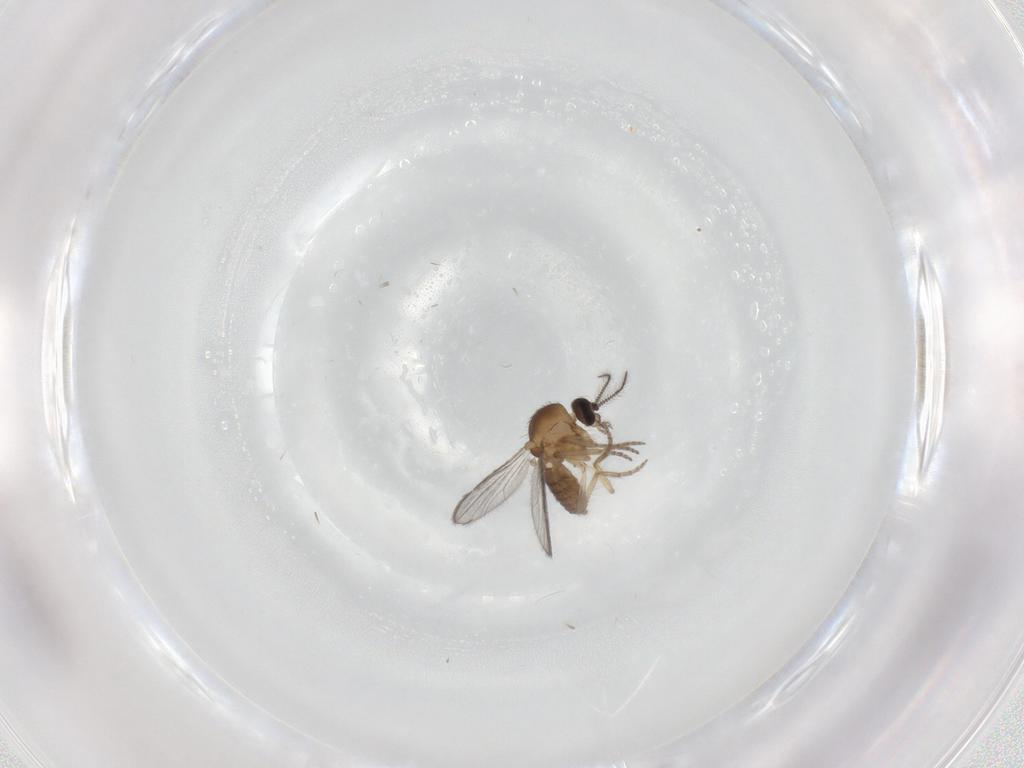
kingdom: Animalia
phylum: Arthropoda
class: Insecta
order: Diptera
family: Ceratopogonidae
